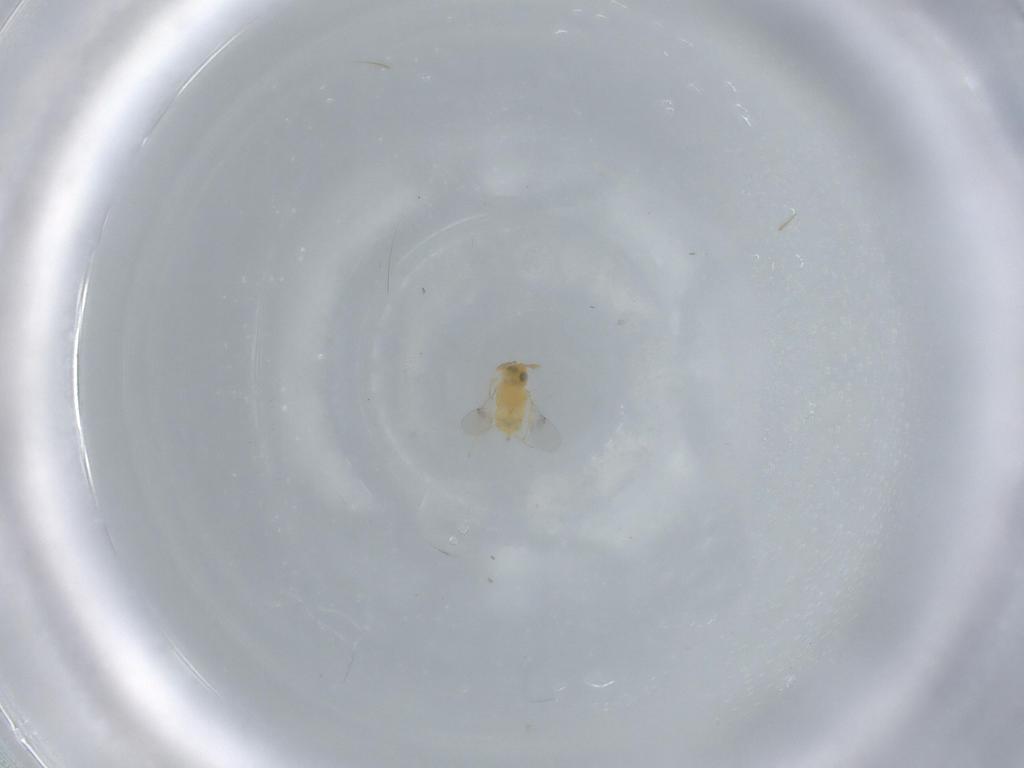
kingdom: Animalia
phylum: Arthropoda
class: Insecta
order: Hymenoptera
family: Encyrtidae
